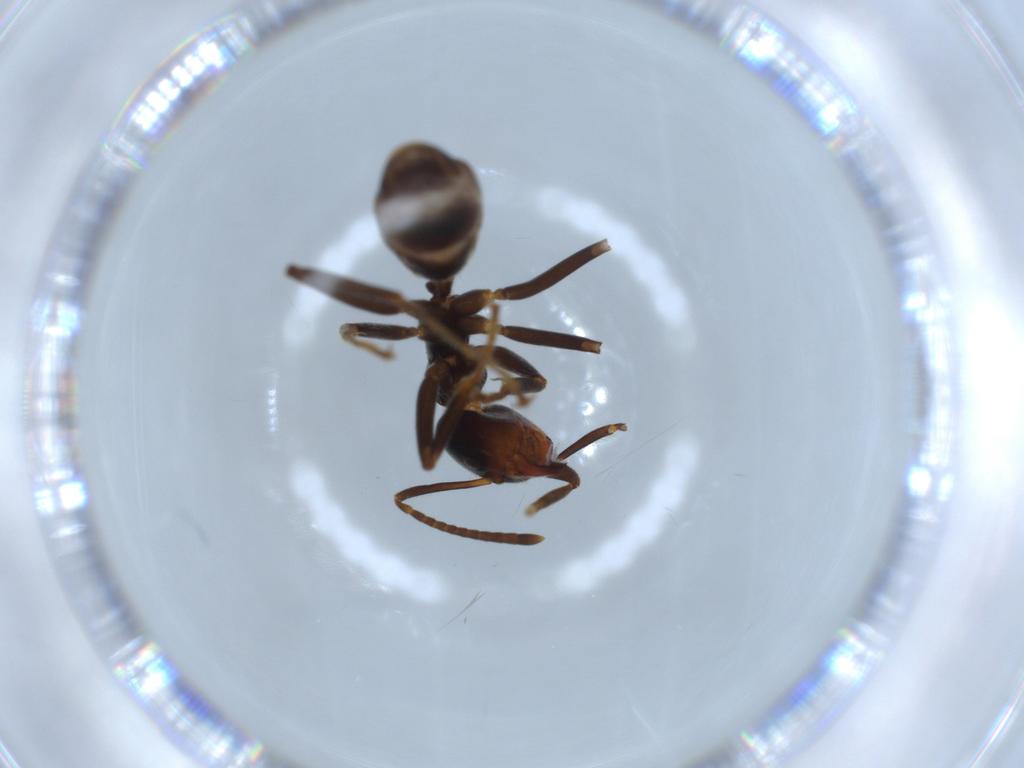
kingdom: Animalia
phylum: Arthropoda
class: Insecta
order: Hymenoptera
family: Formicidae
